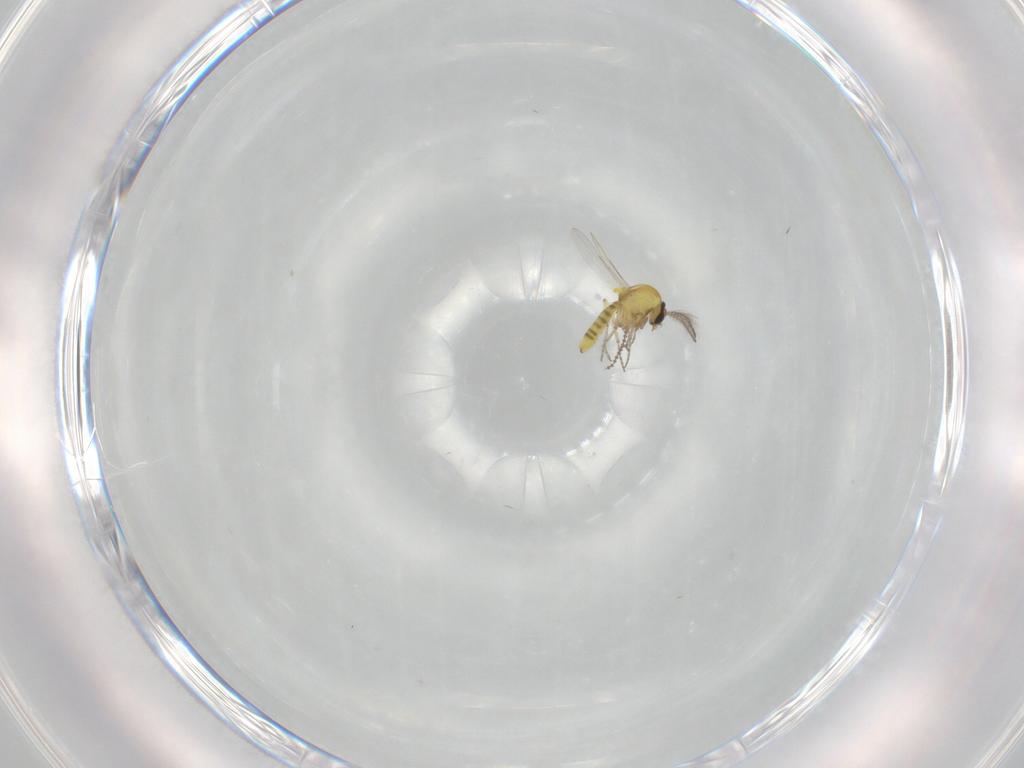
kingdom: Animalia
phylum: Arthropoda
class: Insecta
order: Diptera
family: Ceratopogonidae
